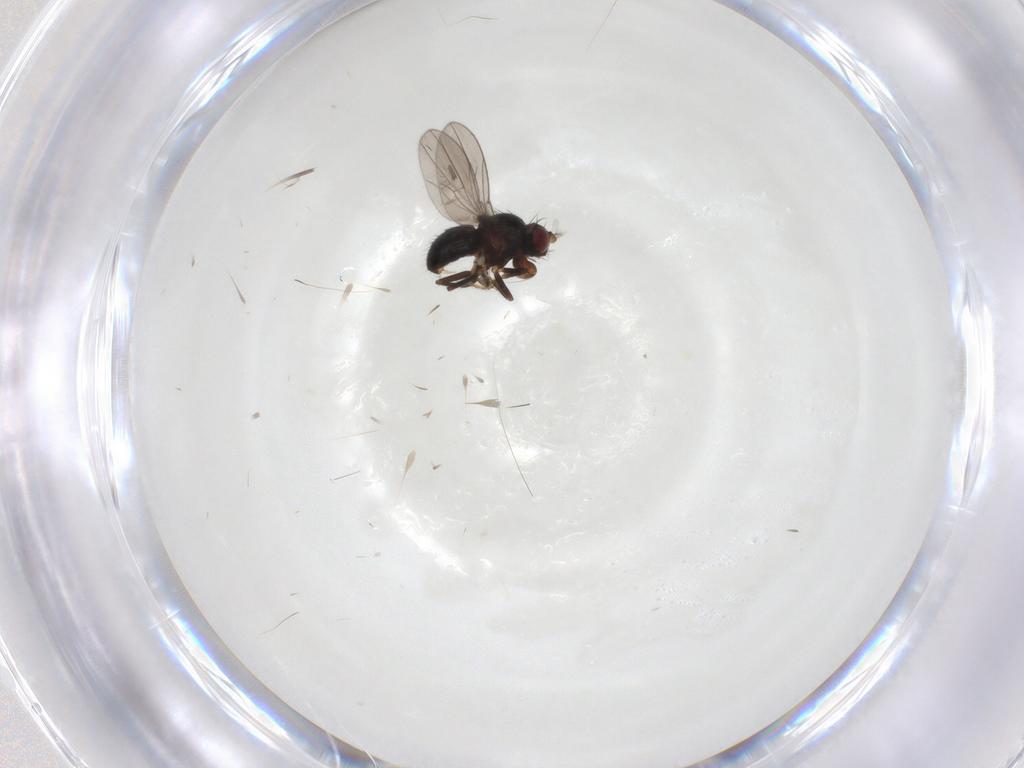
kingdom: Animalia
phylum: Arthropoda
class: Insecta
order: Diptera
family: Ephydridae
